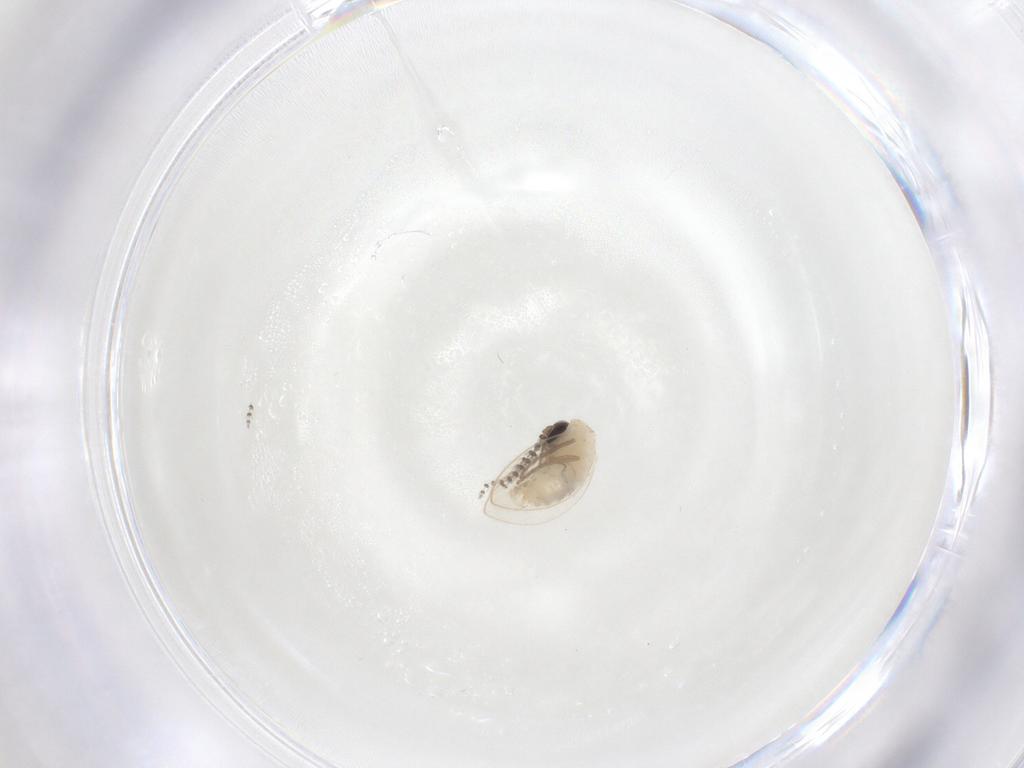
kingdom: Animalia
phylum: Arthropoda
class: Insecta
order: Diptera
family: Psychodidae
